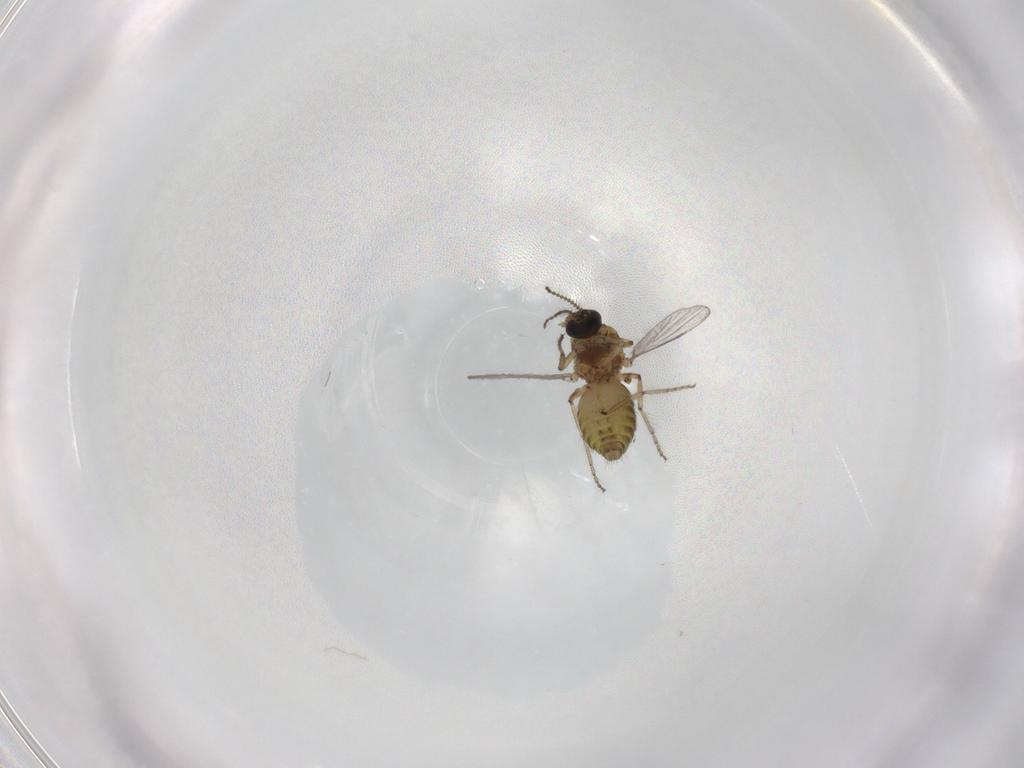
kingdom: Animalia
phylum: Arthropoda
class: Insecta
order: Diptera
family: Ceratopogonidae
